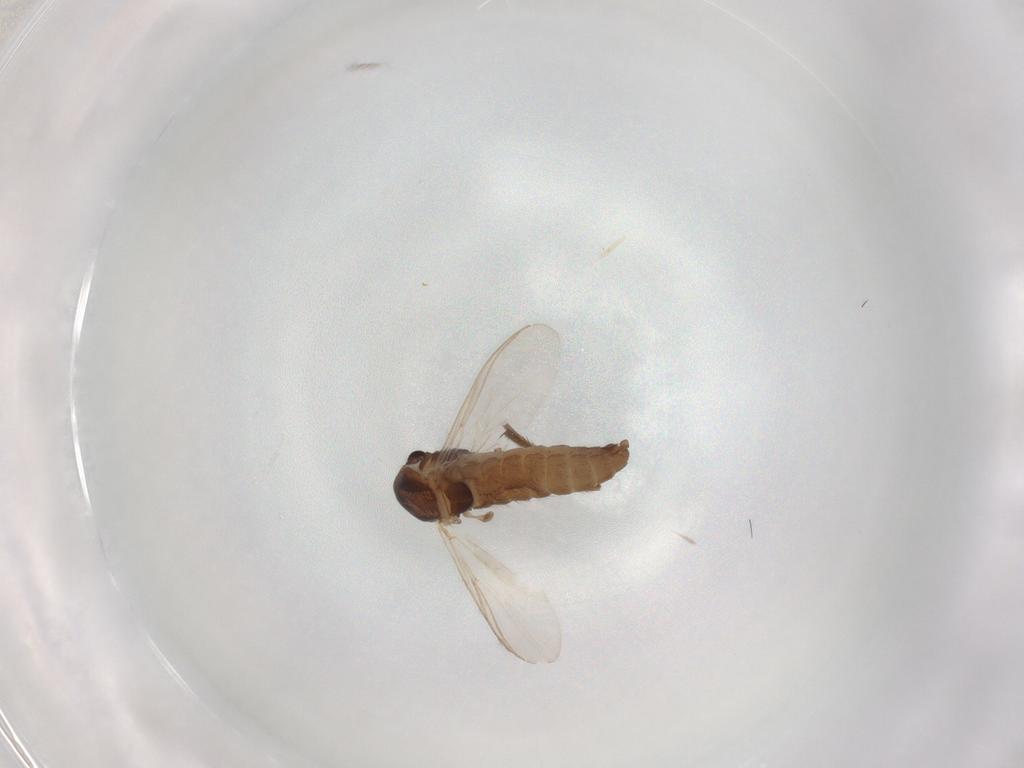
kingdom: Animalia
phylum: Arthropoda
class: Insecta
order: Diptera
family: Chironomidae
